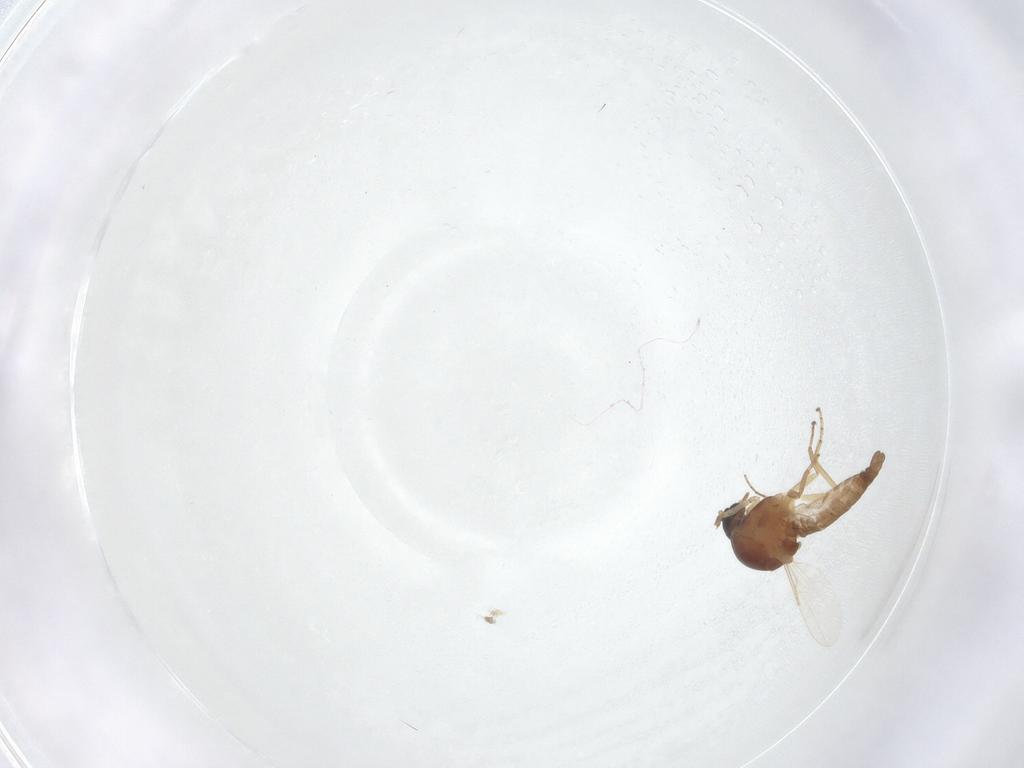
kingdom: Animalia
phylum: Arthropoda
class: Insecta
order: Diptera
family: Ceratopogonidae
